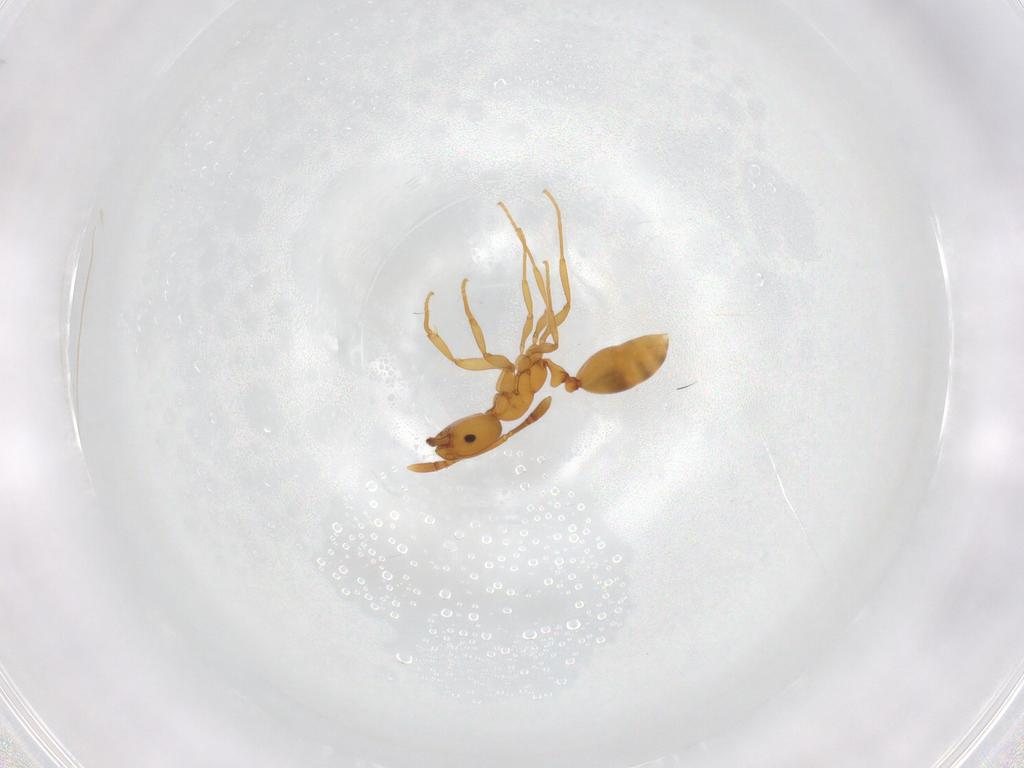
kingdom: Animalia
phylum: Arthropoda
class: Insecta
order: Hymenoptera
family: Formicidae
